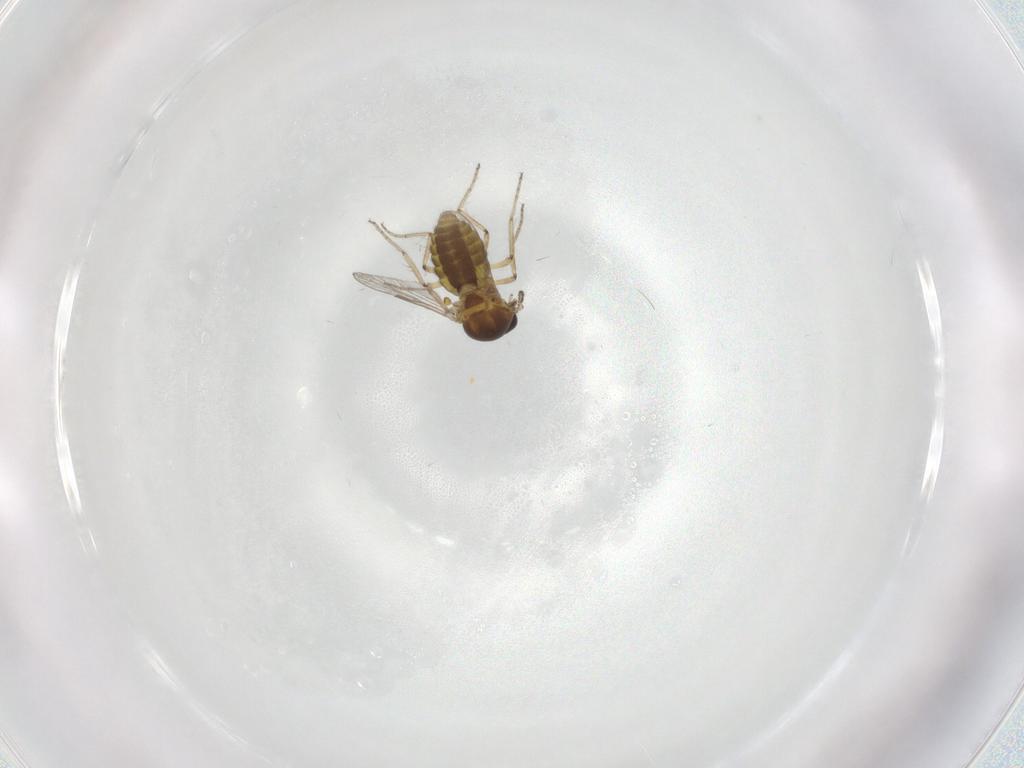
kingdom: Animalia
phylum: Arthropoda
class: Insecta
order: Diptera
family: Ceratopogonidae
